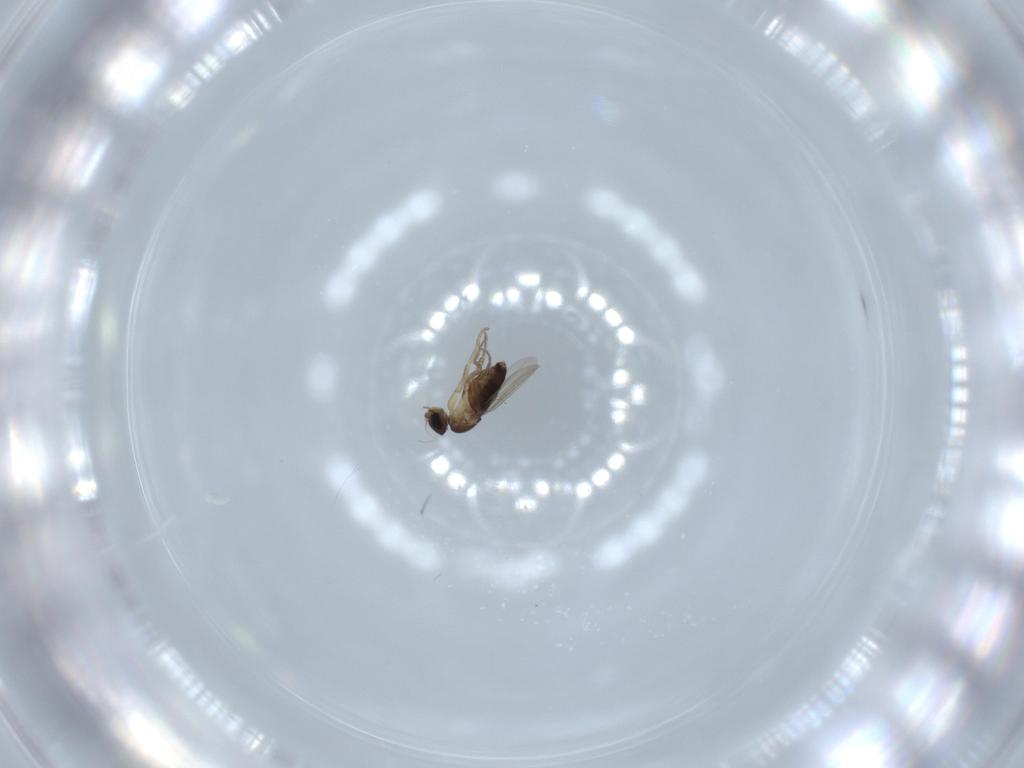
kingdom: Animalia
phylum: Arthropoda
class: Insecta
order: Diptera
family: Phoridae
